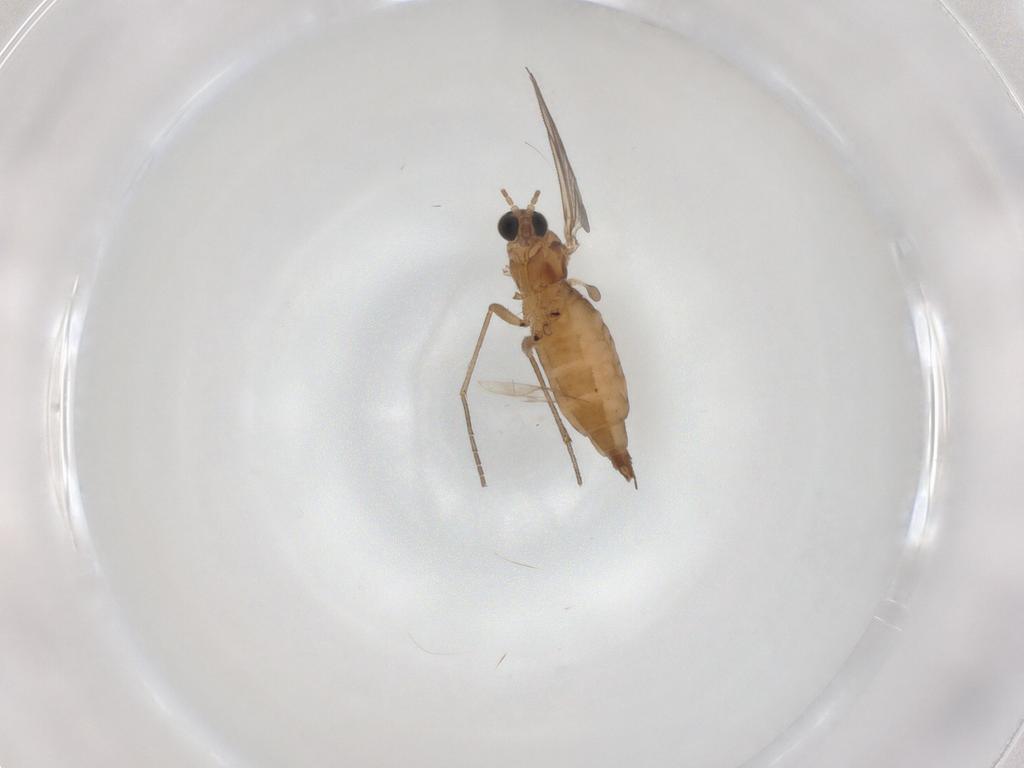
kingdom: Animalia
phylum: Arthropoda
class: Insecta
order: Diptera
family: Sciaridae
